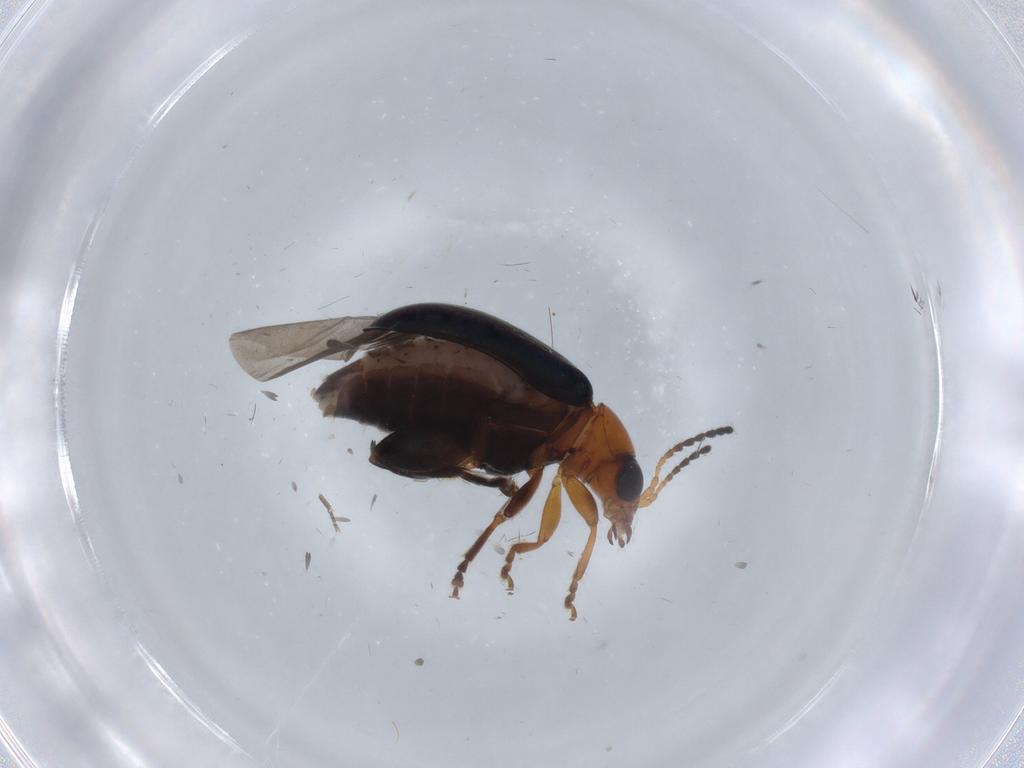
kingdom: Animalia
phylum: Arthropoda
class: Insecta
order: Coleoptera
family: Chrysomelidae
